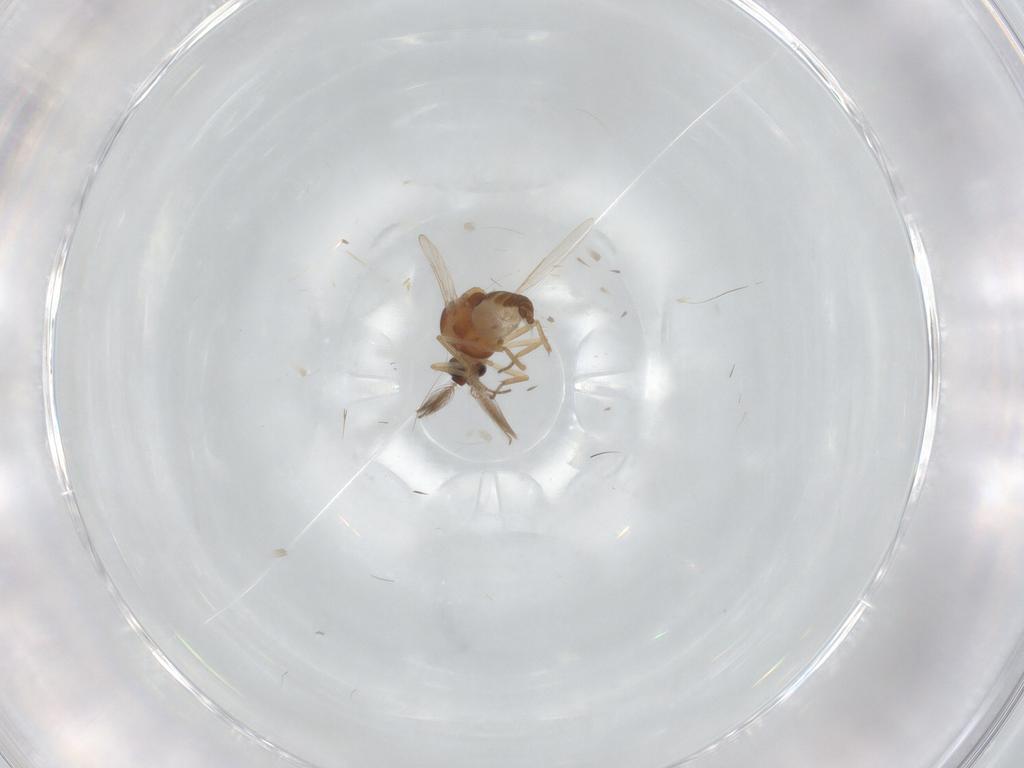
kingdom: Animalia
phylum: Arthropoda
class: Insecta
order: Diptera
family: Ceratopogonidae
